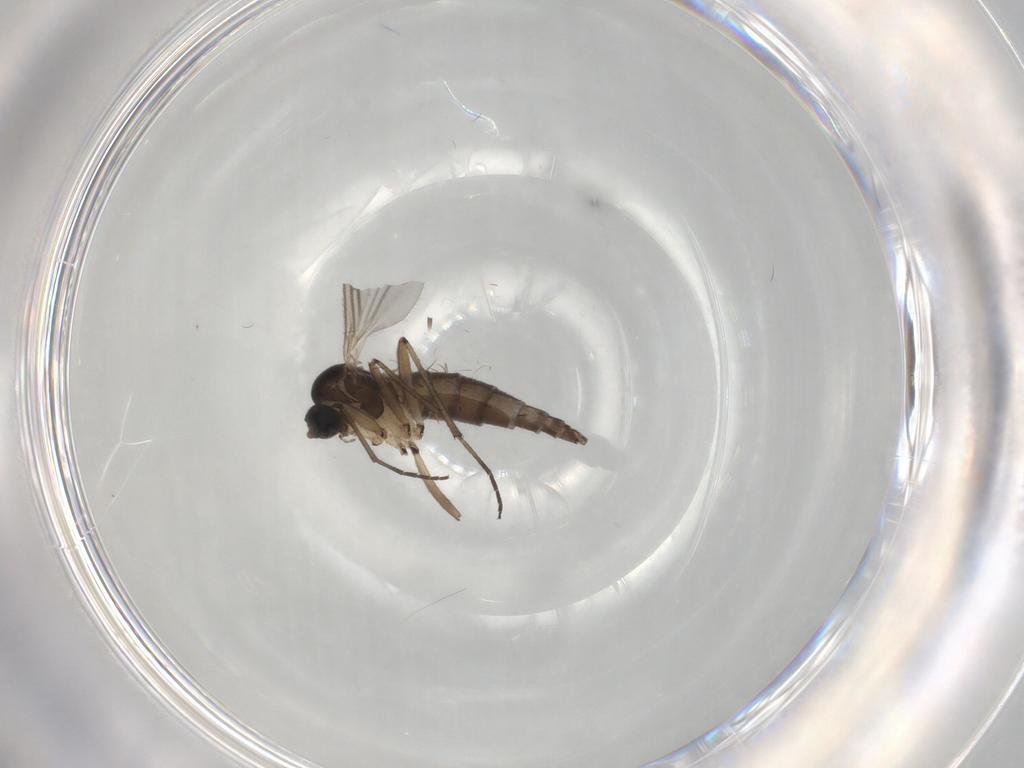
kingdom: Animalia
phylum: Arthropoda
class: Insecta
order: Diptera
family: Sciaridae
